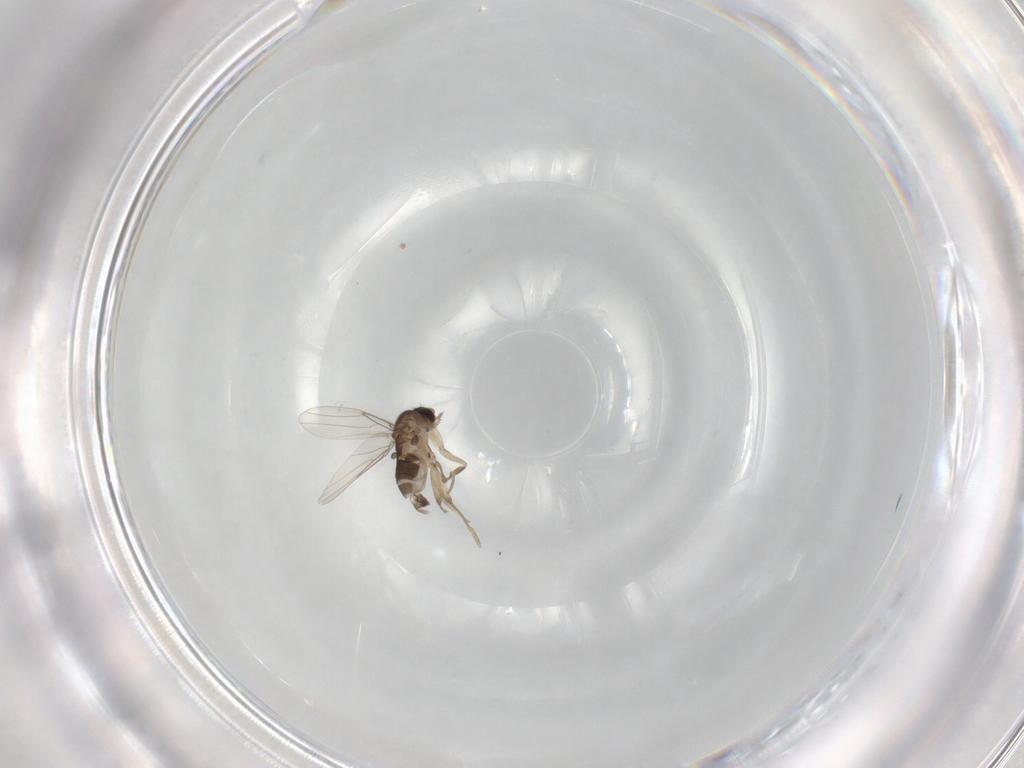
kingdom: Animalia
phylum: Arthropoda
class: Insecta
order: Diptera
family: Phoridae
